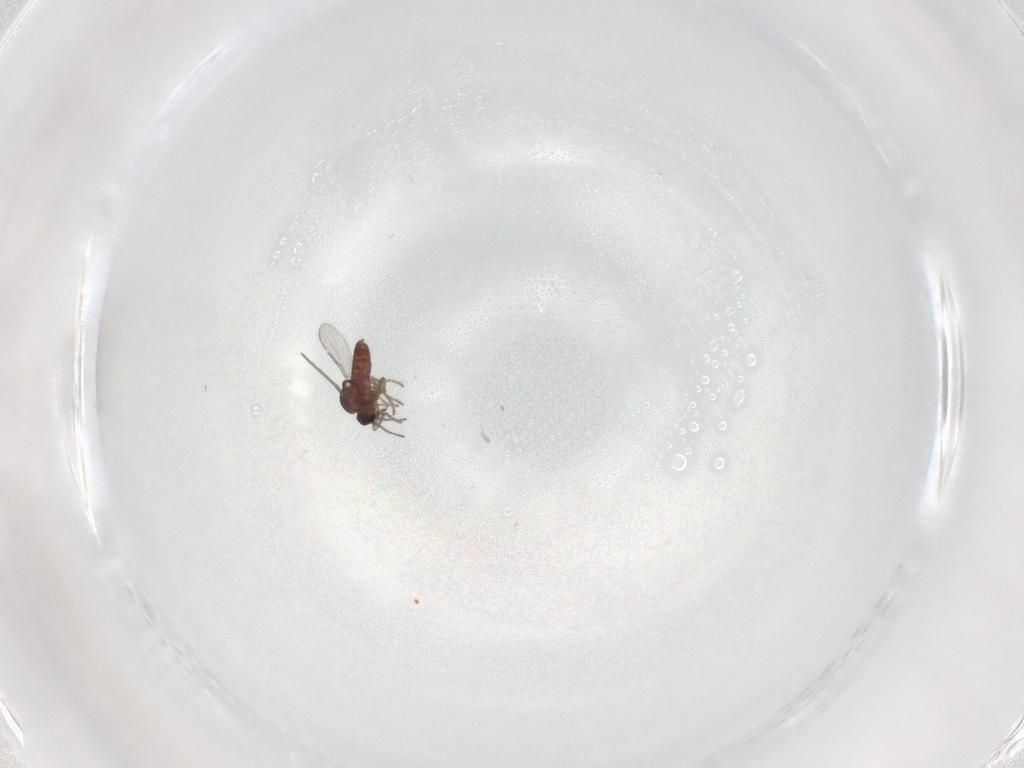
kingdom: Animalia
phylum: Arthropoda
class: Insecta
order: Diptera
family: Ceratopogonidae
